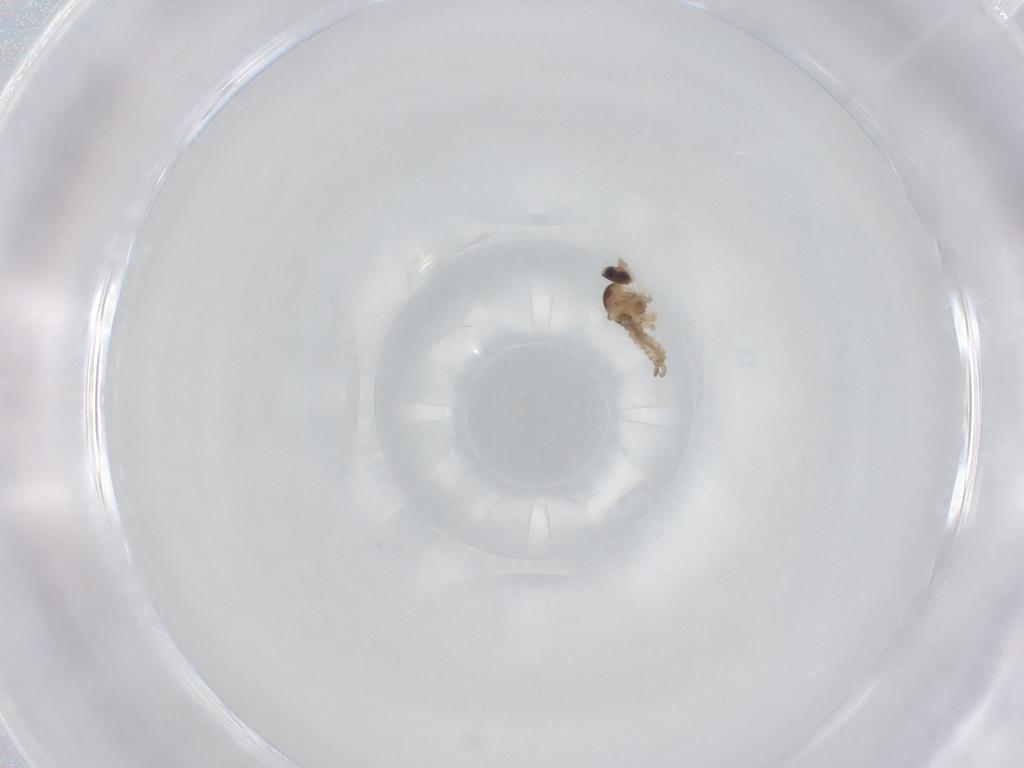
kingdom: Animalia
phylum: Arthropoda
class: Insecta
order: Diptera
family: Cecidomyiidae
